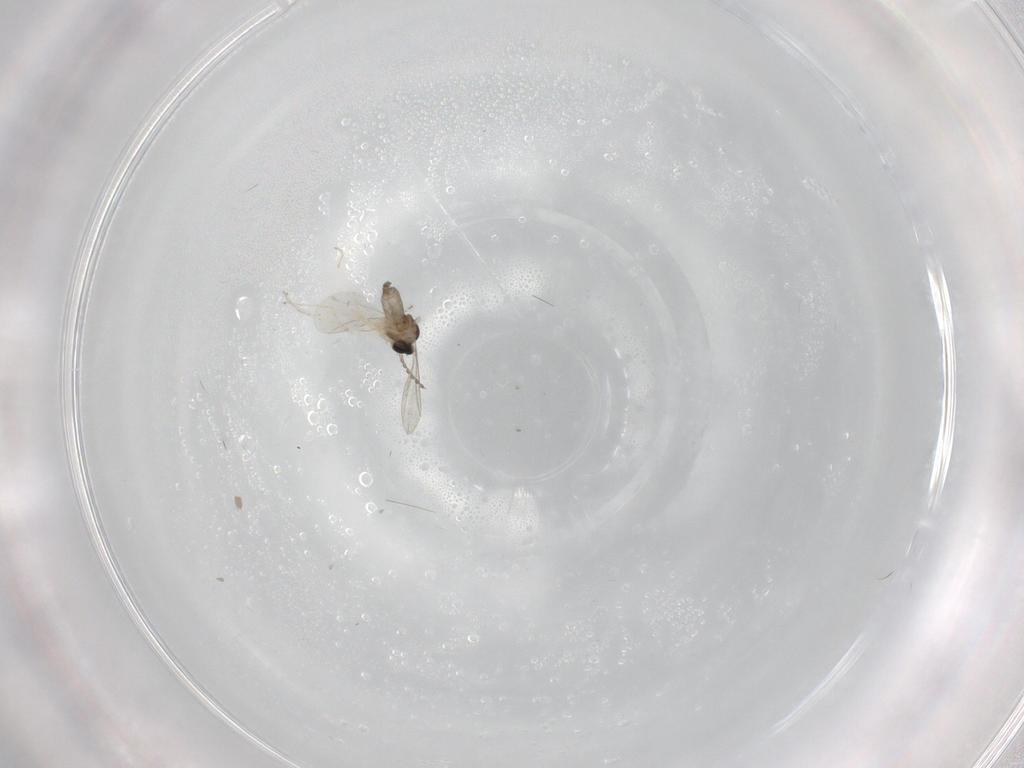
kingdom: Animalia
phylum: Arthropoda
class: Insecta
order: Diptera
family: Cecidomyiidae
